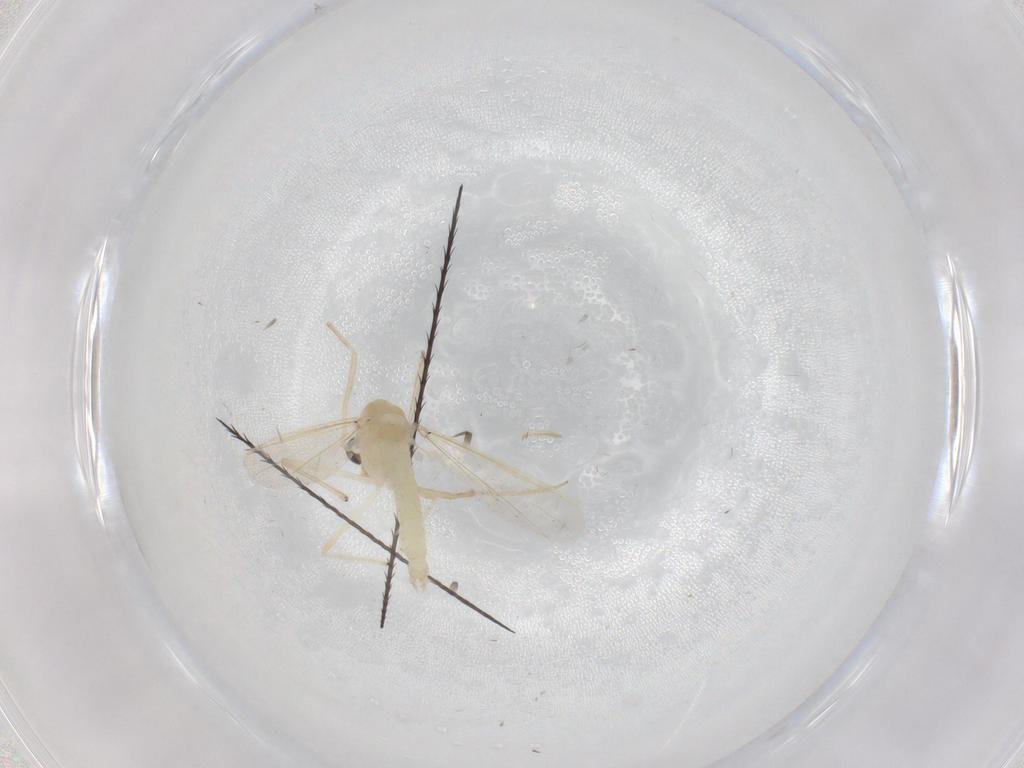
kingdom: Animalia
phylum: Arthropoda
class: Insecta
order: Diptera
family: Chironomidae
